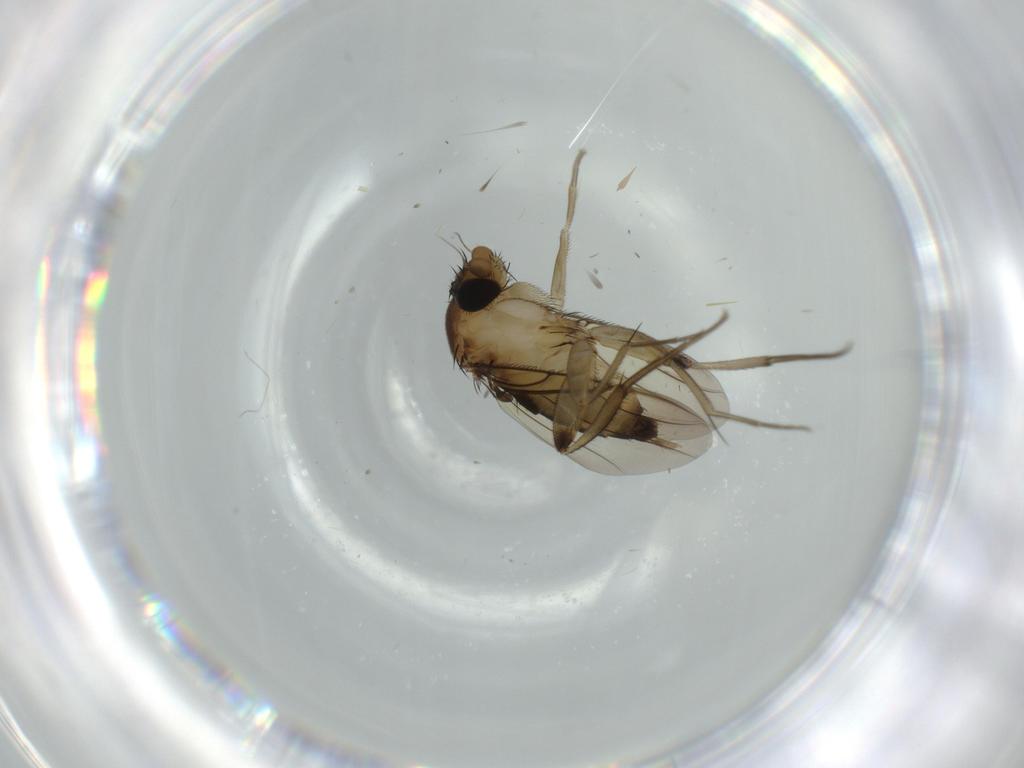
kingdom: Animalia
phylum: Arthropoda
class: Insecta
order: Diptera
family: Phoridae
